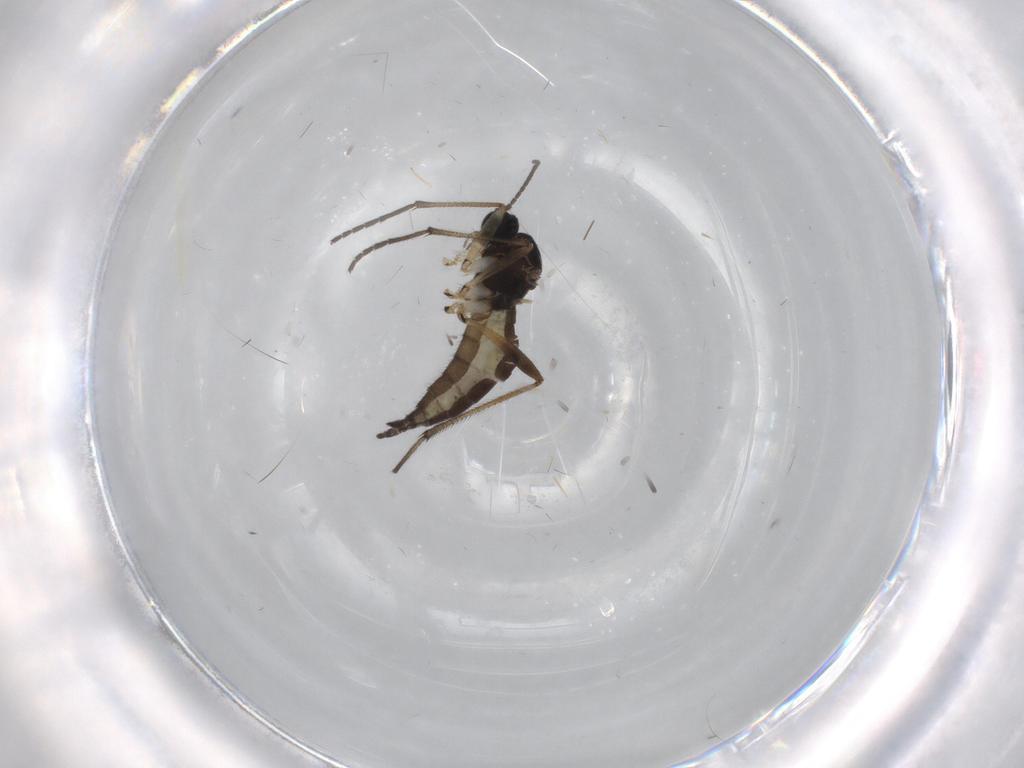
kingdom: Animalia
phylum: Arthropoda
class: Insecta
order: Diptera
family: Sciaridae
